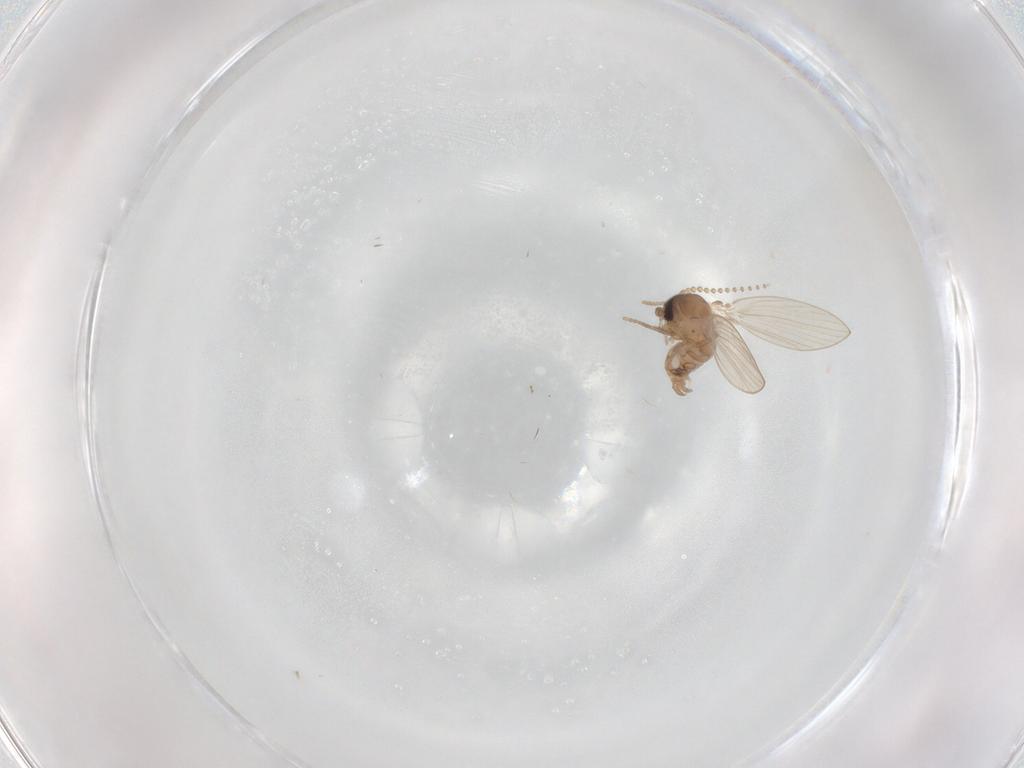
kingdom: Animalia
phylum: Arthropoda
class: Insecta
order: Diptera
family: Psychodidae
